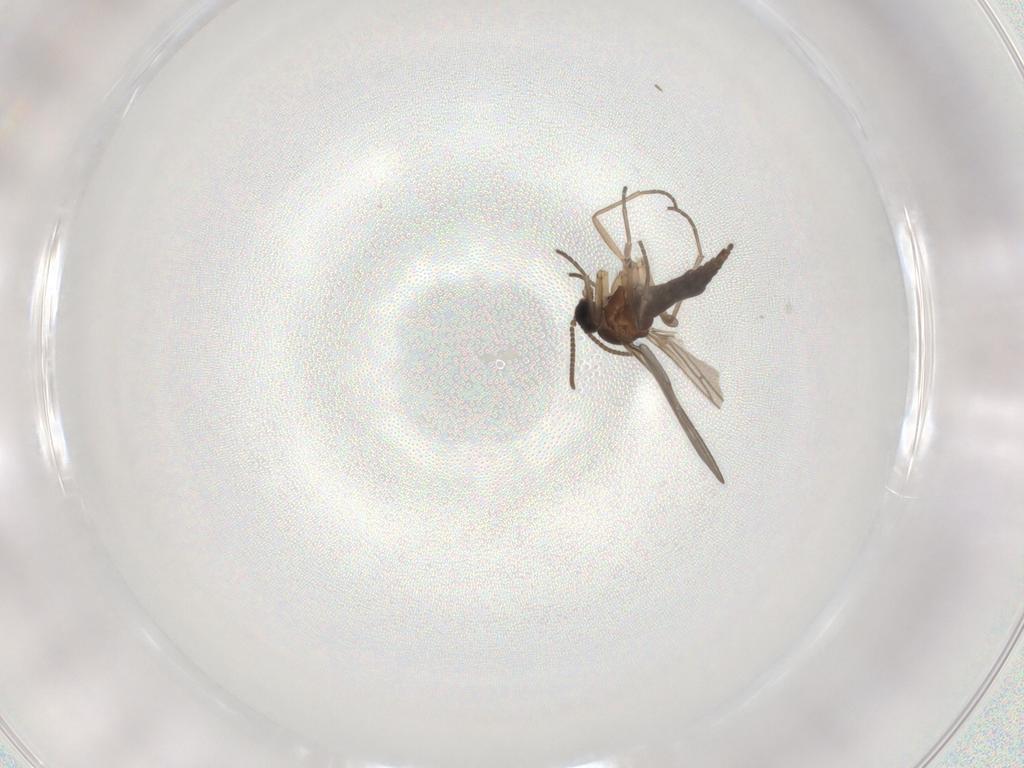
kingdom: Animalia
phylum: Arthropoda
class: Insecta
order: Diptera
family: Sciaridae
